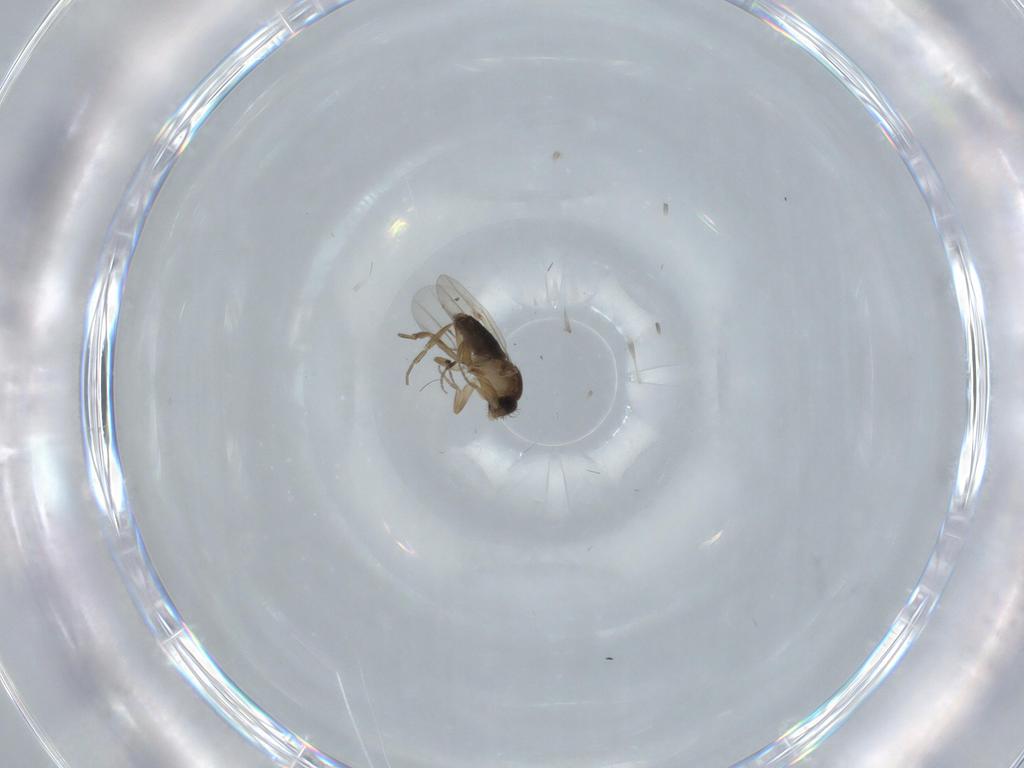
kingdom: Animalia
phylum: Arthropoda
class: Insecta
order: Diptera
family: Phoridae
